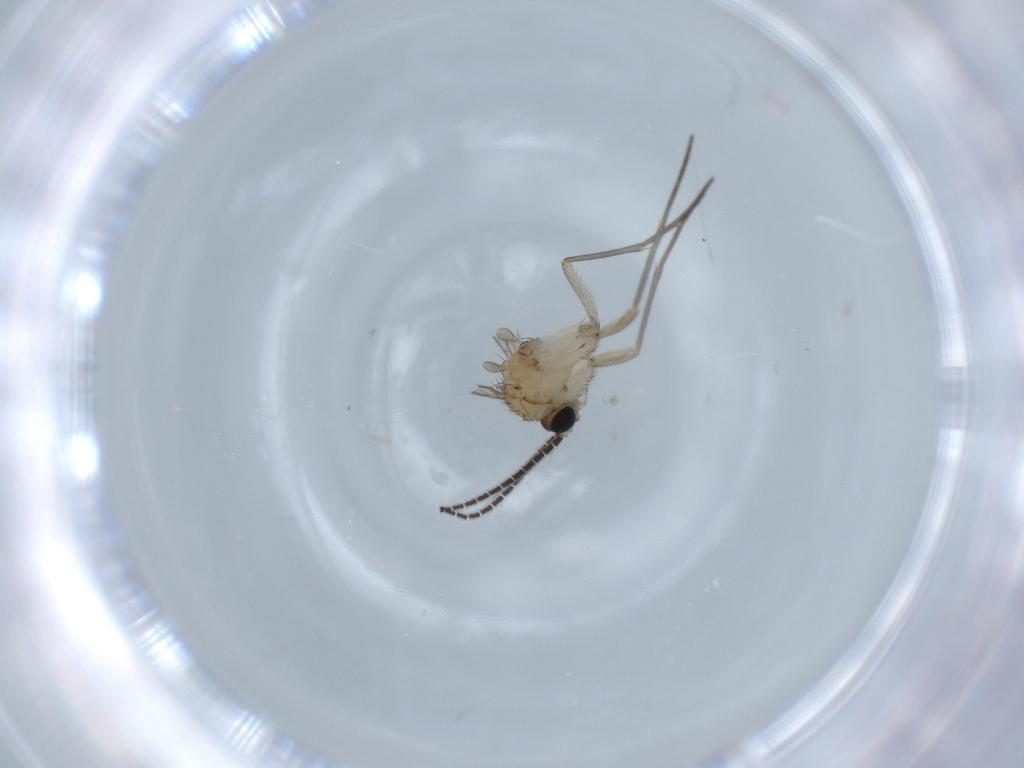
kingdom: Animalia
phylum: Arthropoda
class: Insecta
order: Diptera
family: Sciaridae
